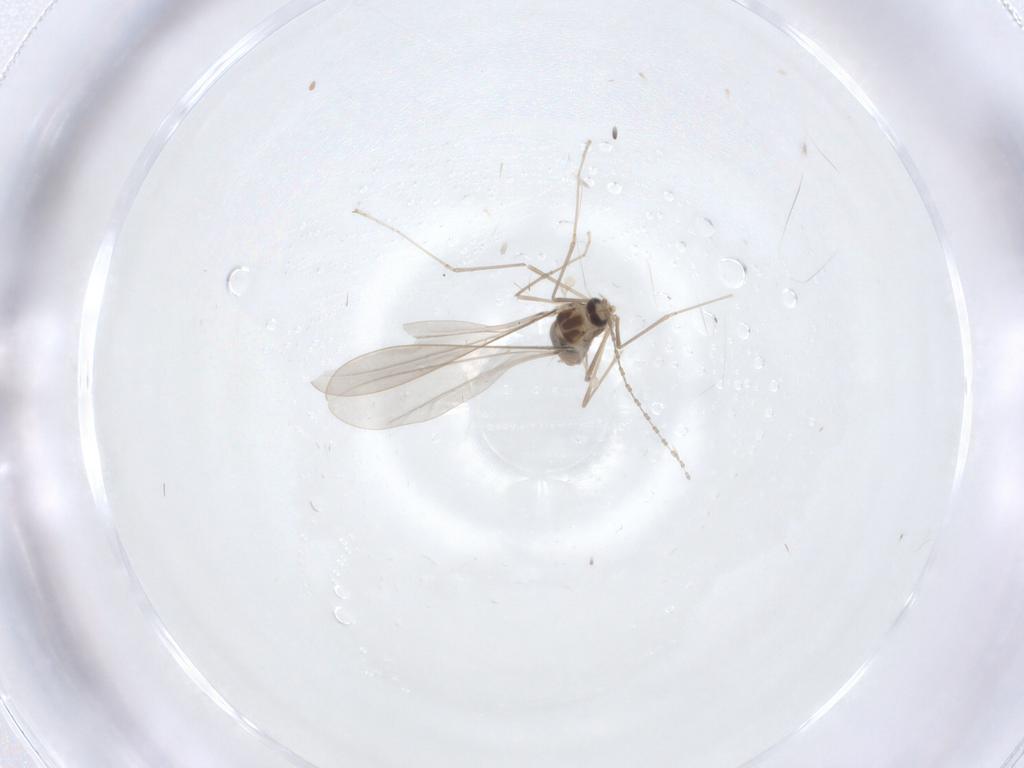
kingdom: Animalia
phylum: Arthropoda
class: Insecta
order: Diptera
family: Cecidomyiidae
